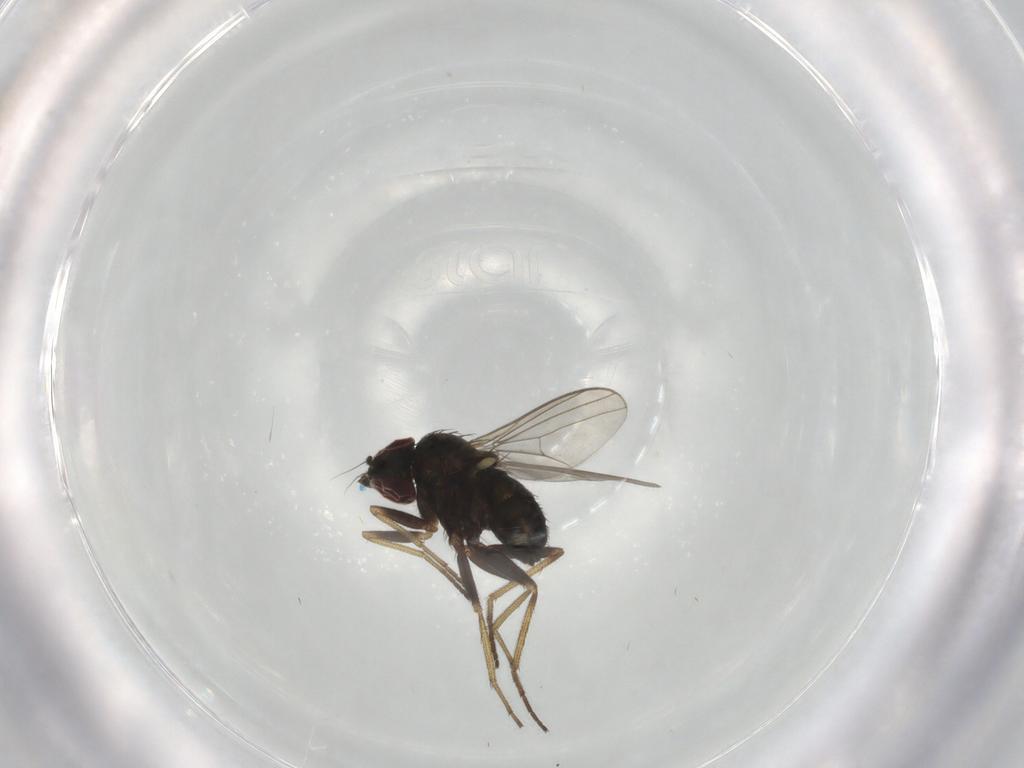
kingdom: Animalia
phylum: Arthropoda
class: Insecta
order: Diptera
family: Dolichopodidae
